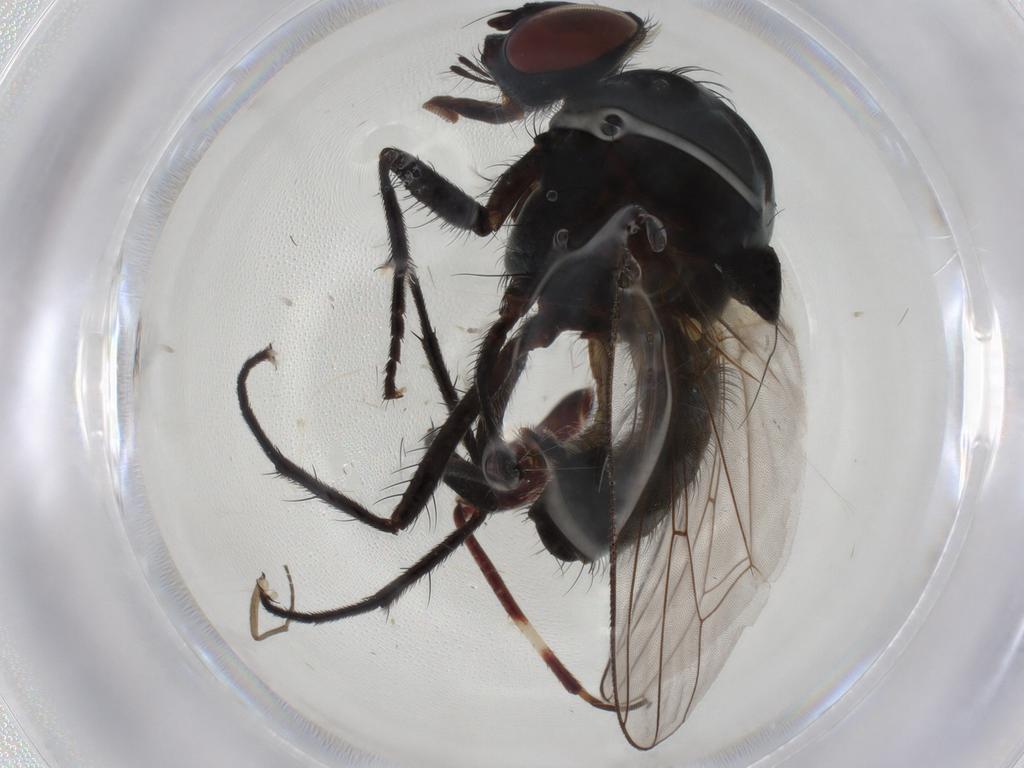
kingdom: Animalia
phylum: Arthropoda
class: Insecta
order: Diptera
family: Anthomyiidae
